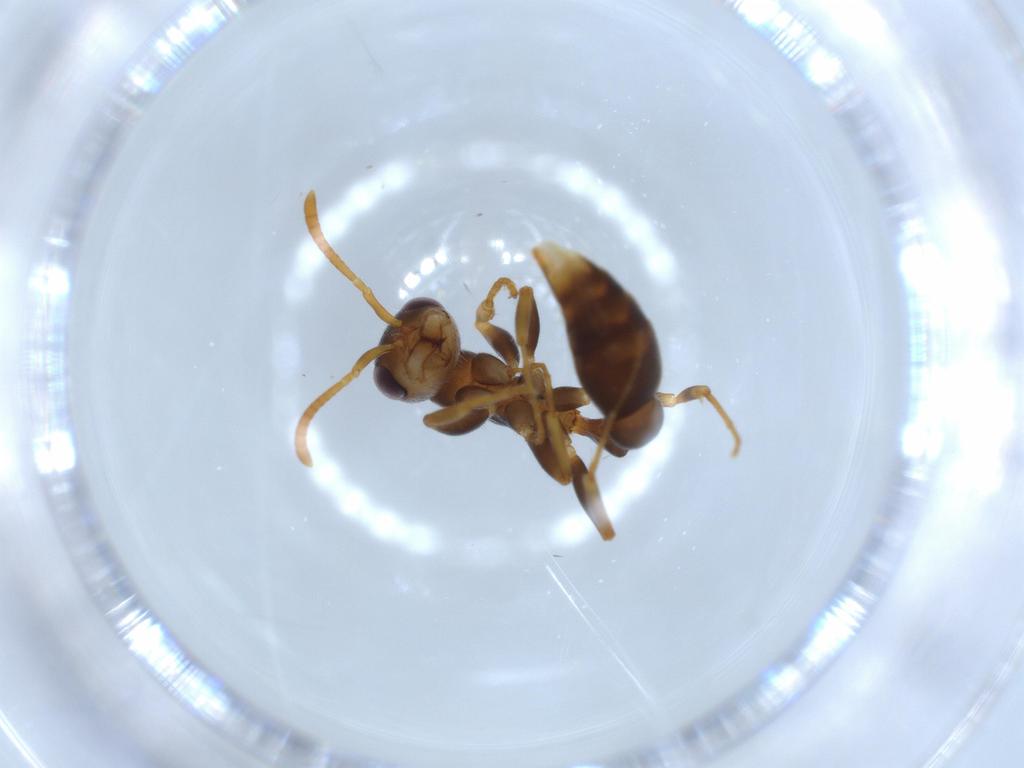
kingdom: Animalia
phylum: Arthropoda
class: Insecta
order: Hymenoptera
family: Formicidae
